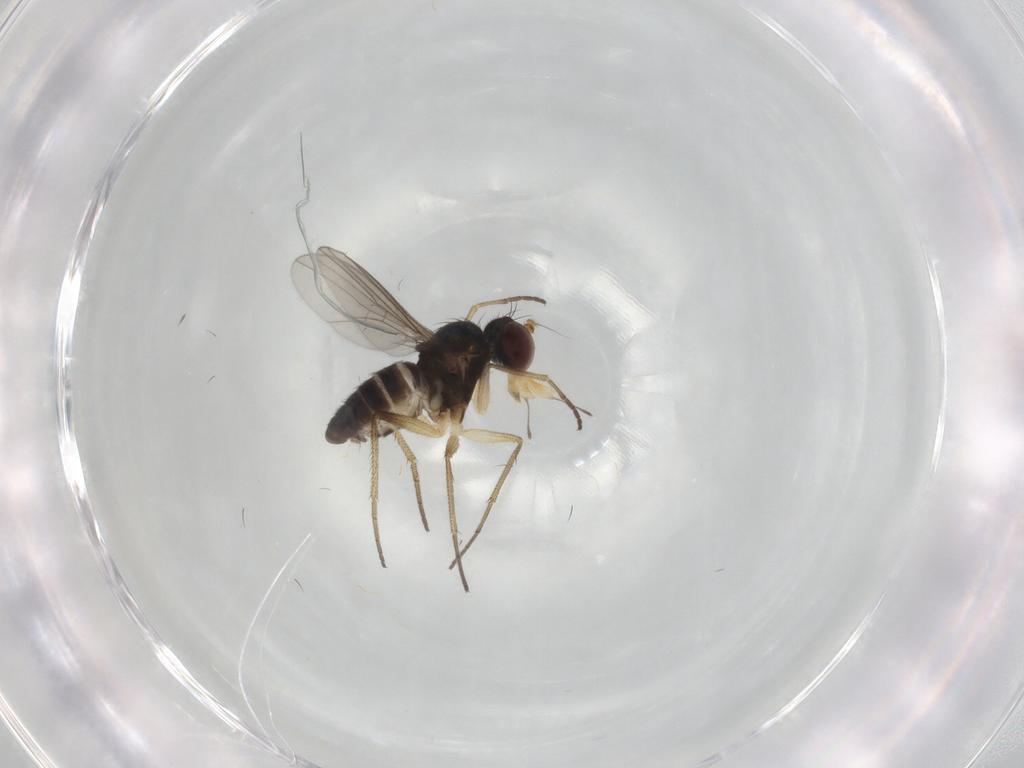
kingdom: Animalia
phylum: Arthropoda
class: Insecta
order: Diptera
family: Dolichopodidae
